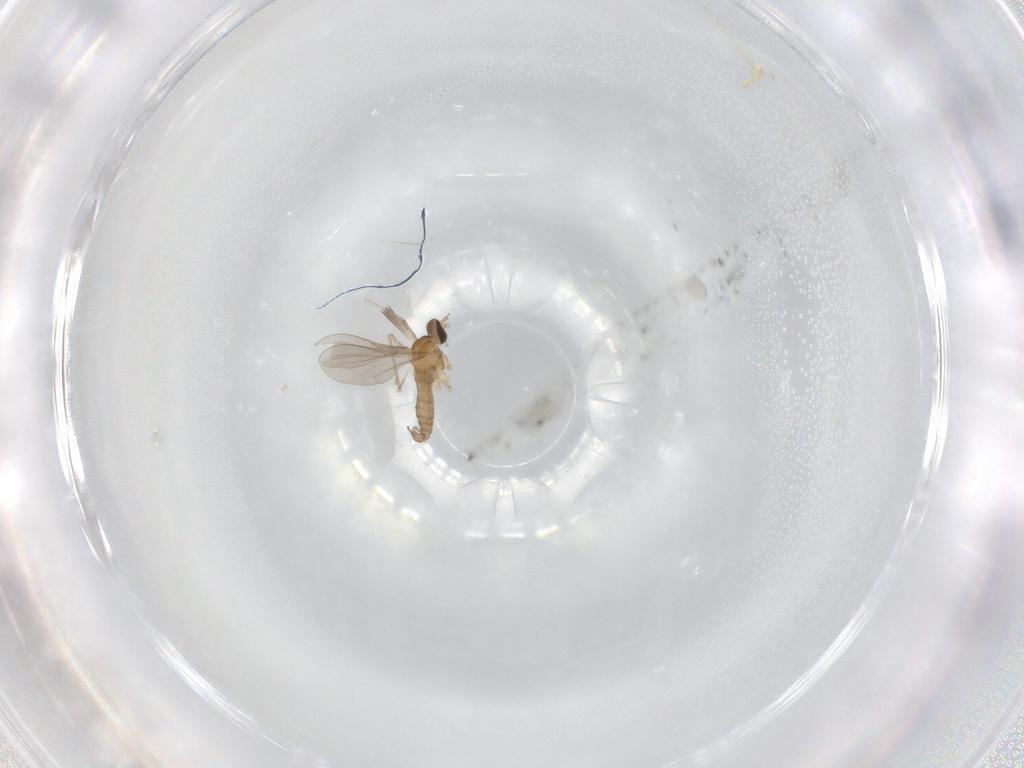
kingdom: Animalia
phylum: Arthropoda
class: Insecta
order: Diptera
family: Cecidomyiidae
